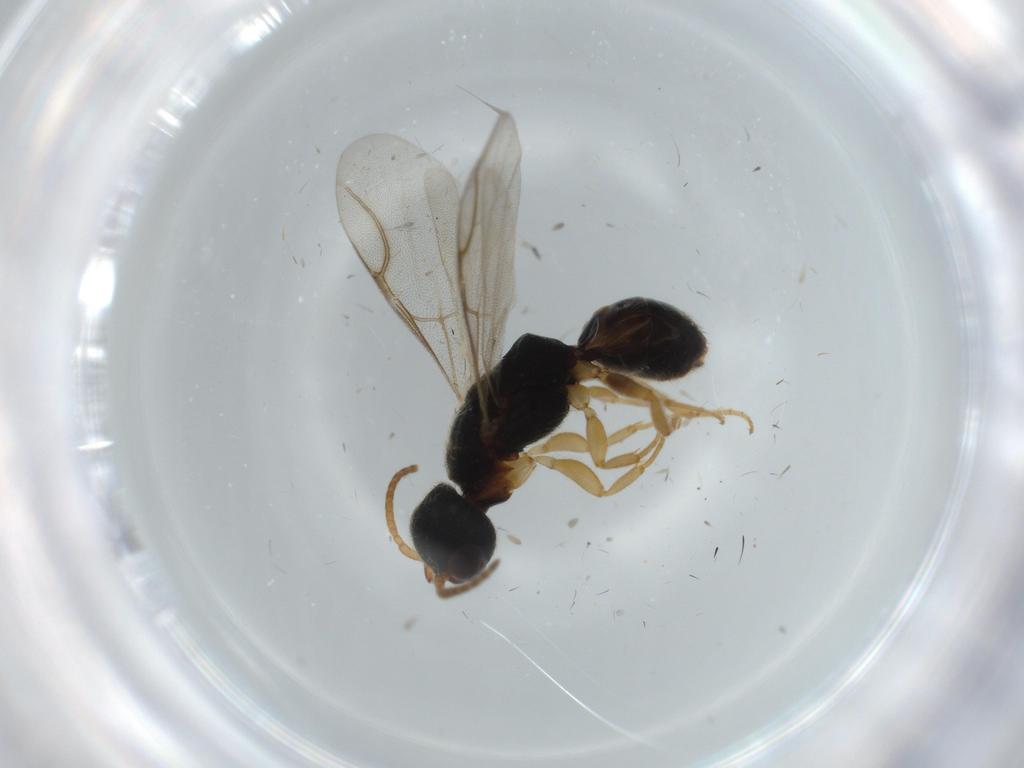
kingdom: Animalia
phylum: Arthropoda
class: Insecta
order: Hymenoptera
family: Bethylidae
